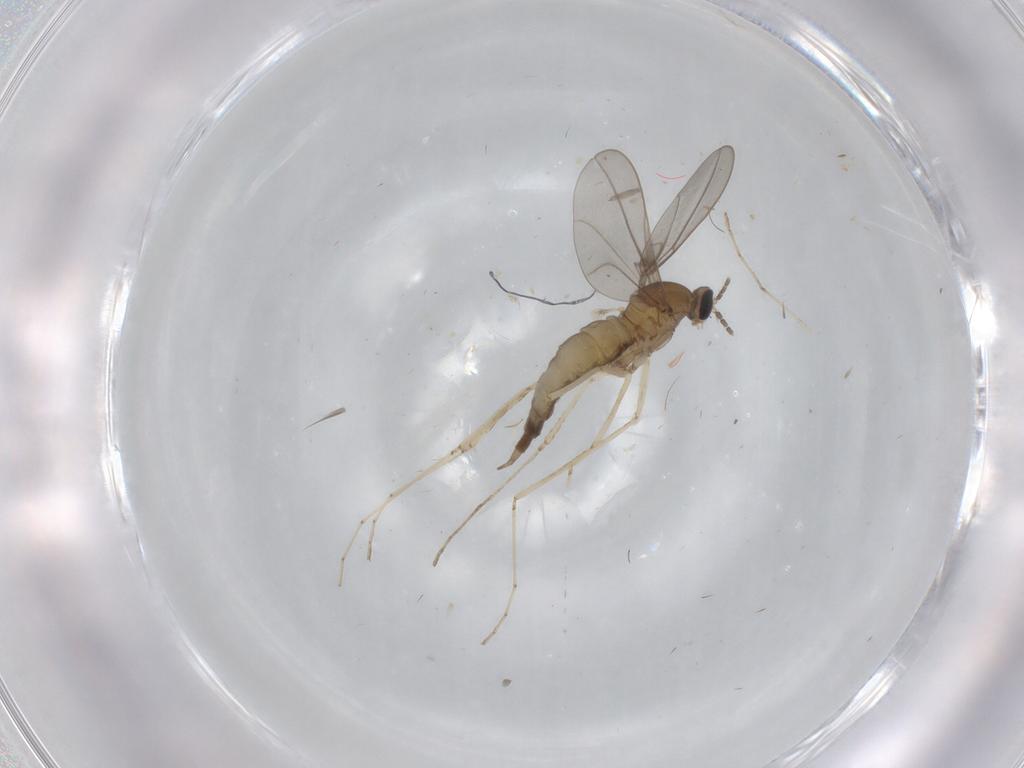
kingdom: Animalia
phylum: Arthropoda
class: Insecta
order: Diptera
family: Cecidomyiidae
